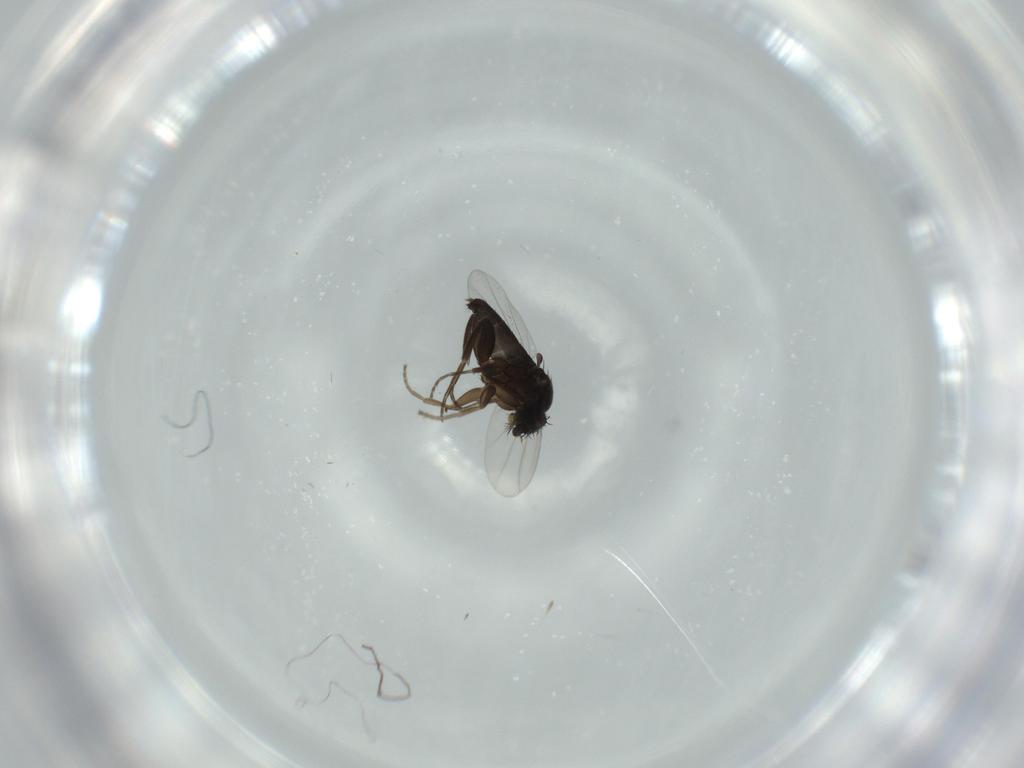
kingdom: Animalia
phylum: Arthropoda
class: Insecta
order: Diptera
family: Phoridae
